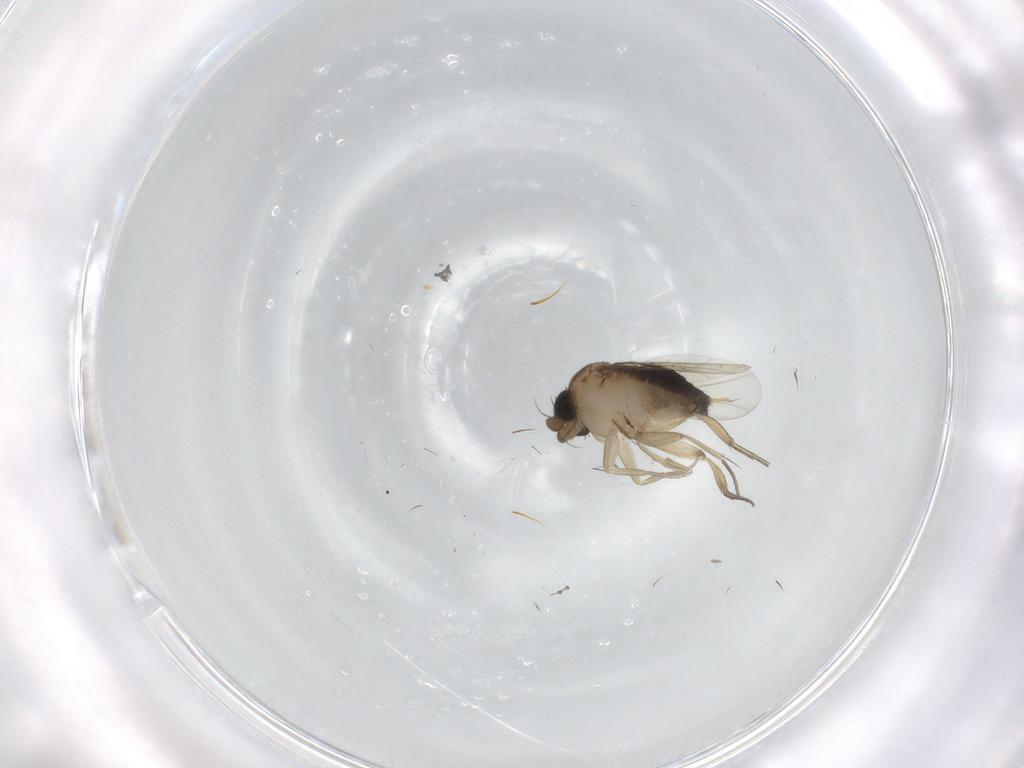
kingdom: Animalia
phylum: Arthropoda
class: Insecta
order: Diptera
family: Phoridae
